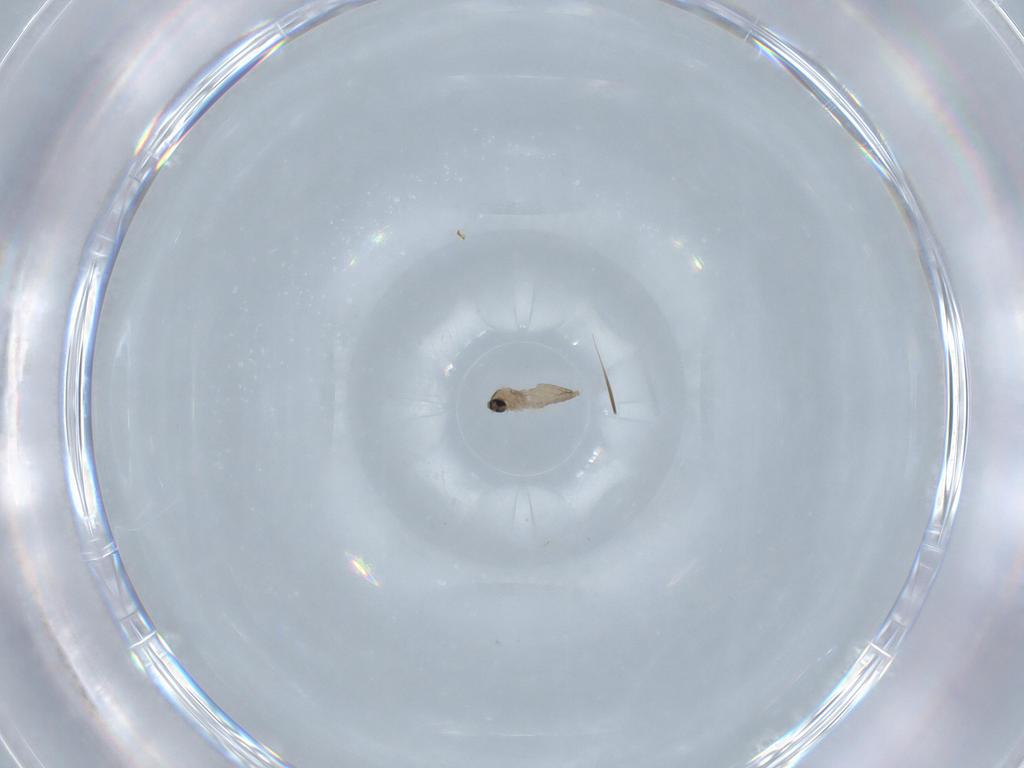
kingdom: Animalia
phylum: Arthropoda
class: Insecta
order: Diptera
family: Cecidomyiidae
